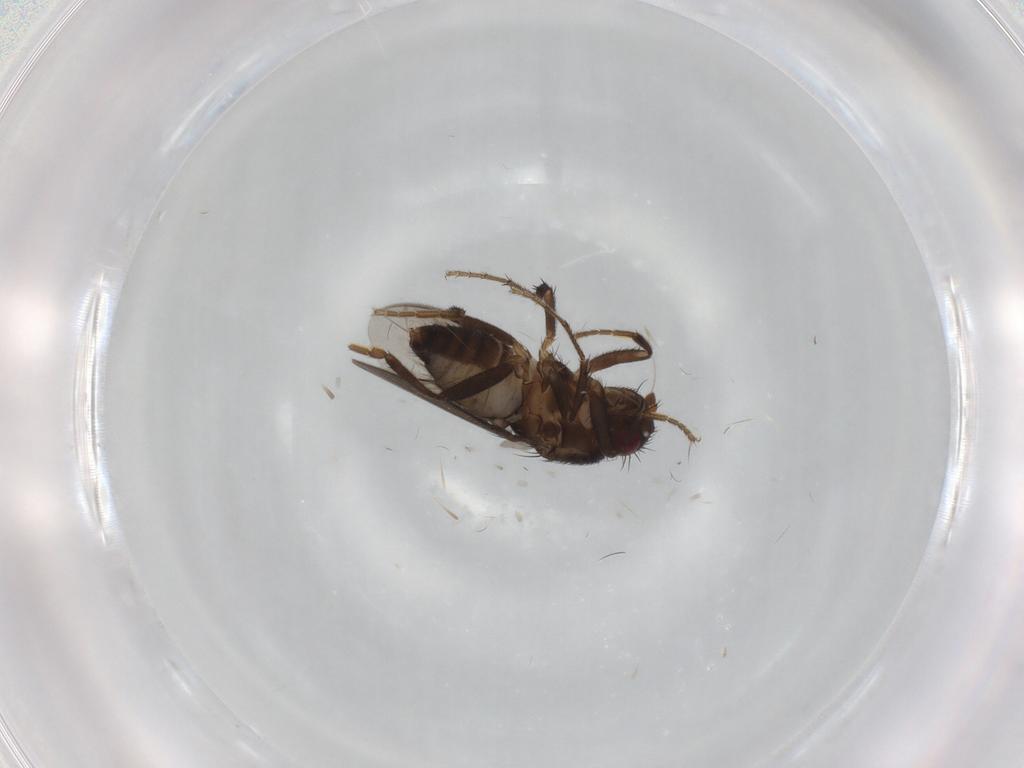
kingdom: Animalia
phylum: Arthropoda
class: Insecta
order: Diptera
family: Sphaeroceridae
